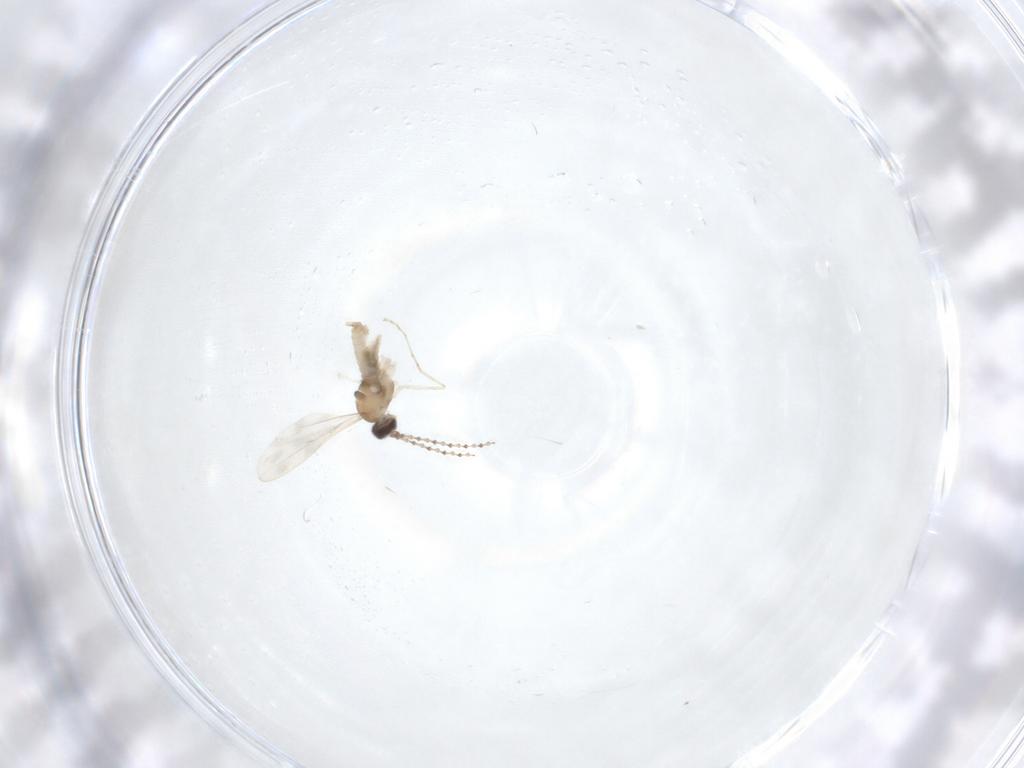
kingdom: Animalia
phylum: Arthropoda
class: Insecta
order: Diptera
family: Cecidomyiidae
